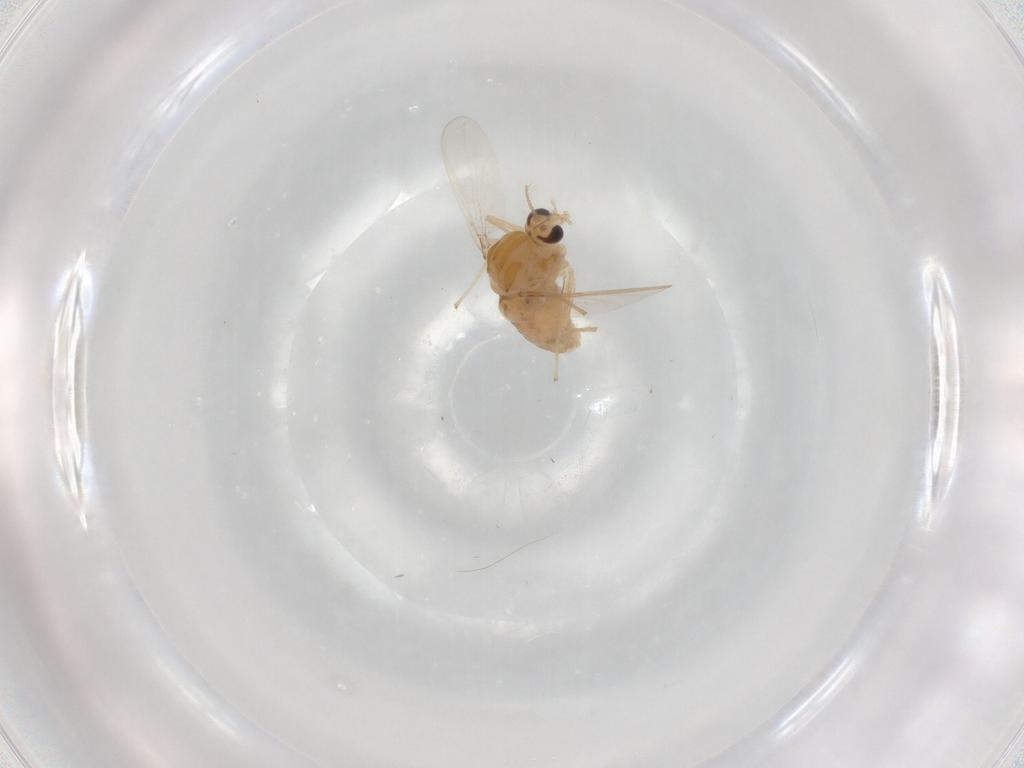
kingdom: Animalia
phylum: Arthropoda
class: Insecta
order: Diptera
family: Chironomidae
